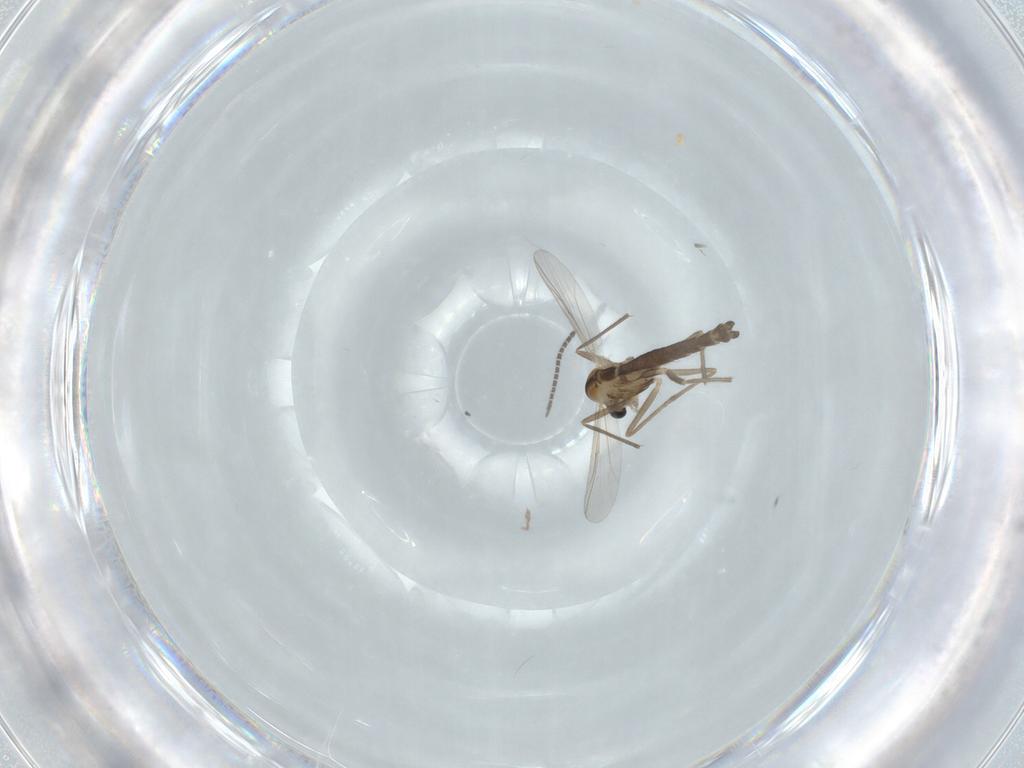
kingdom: Animalia
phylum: Arthropoda
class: Insecta
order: Diptera
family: Chironomidae
